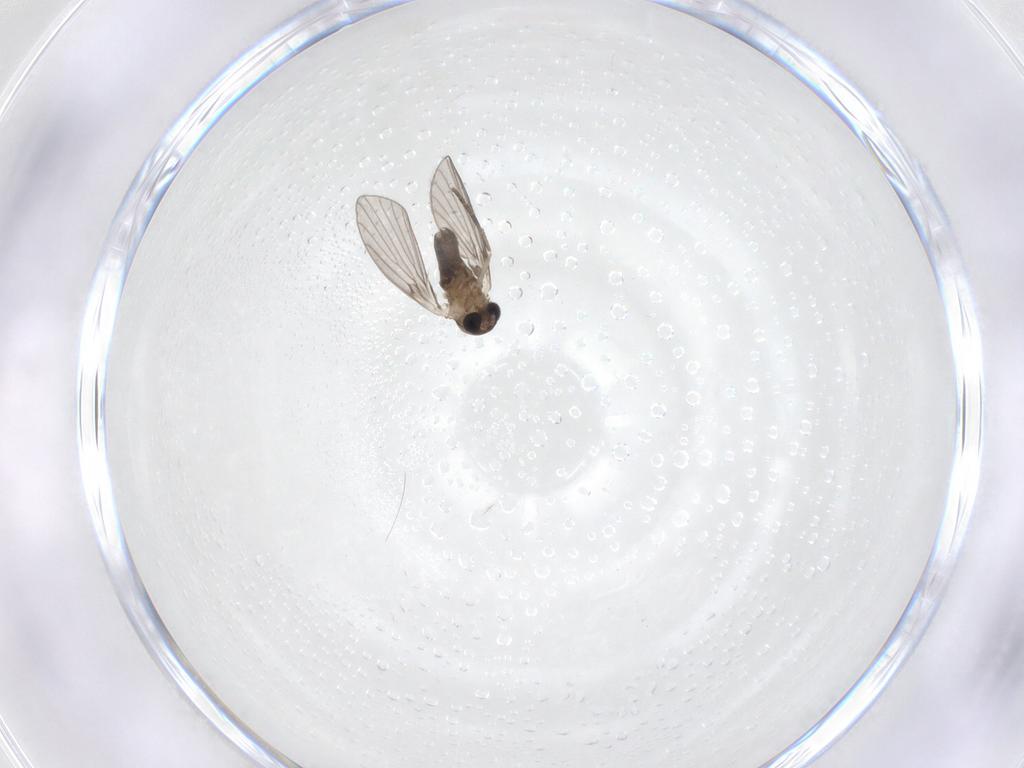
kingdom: Animalia
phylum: Arthropoda
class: Insecta
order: Diptera
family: Psychodidae
